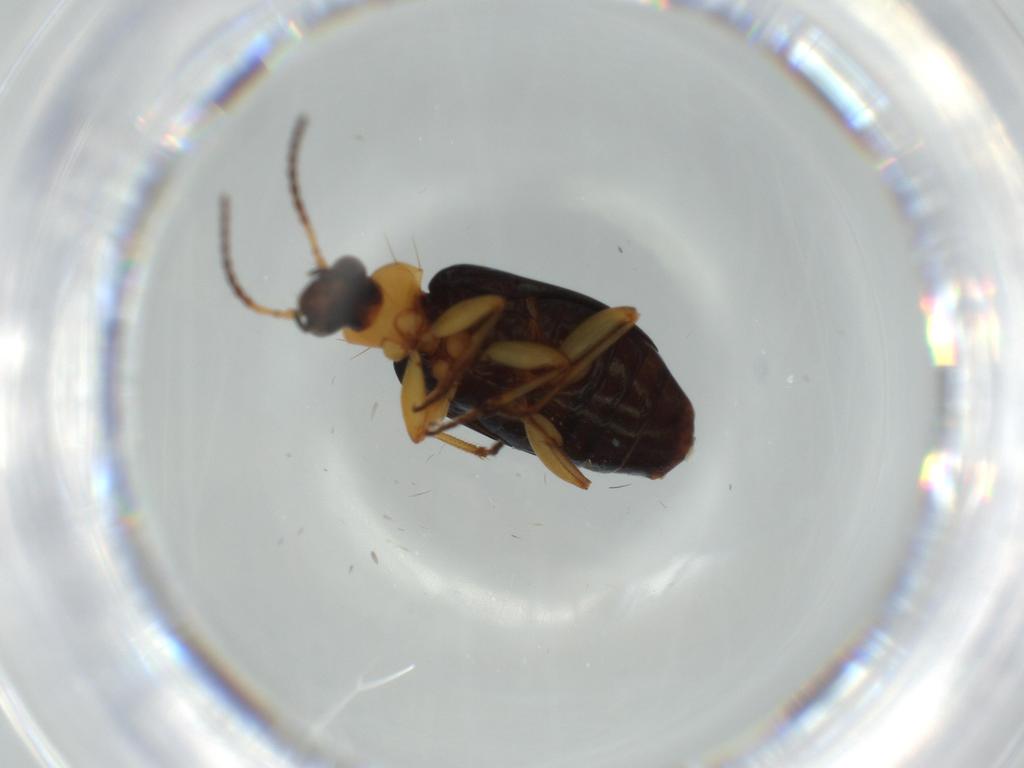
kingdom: Animalia
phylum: Arthropoda
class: Insecta
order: Coleoptera
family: Carabidae
